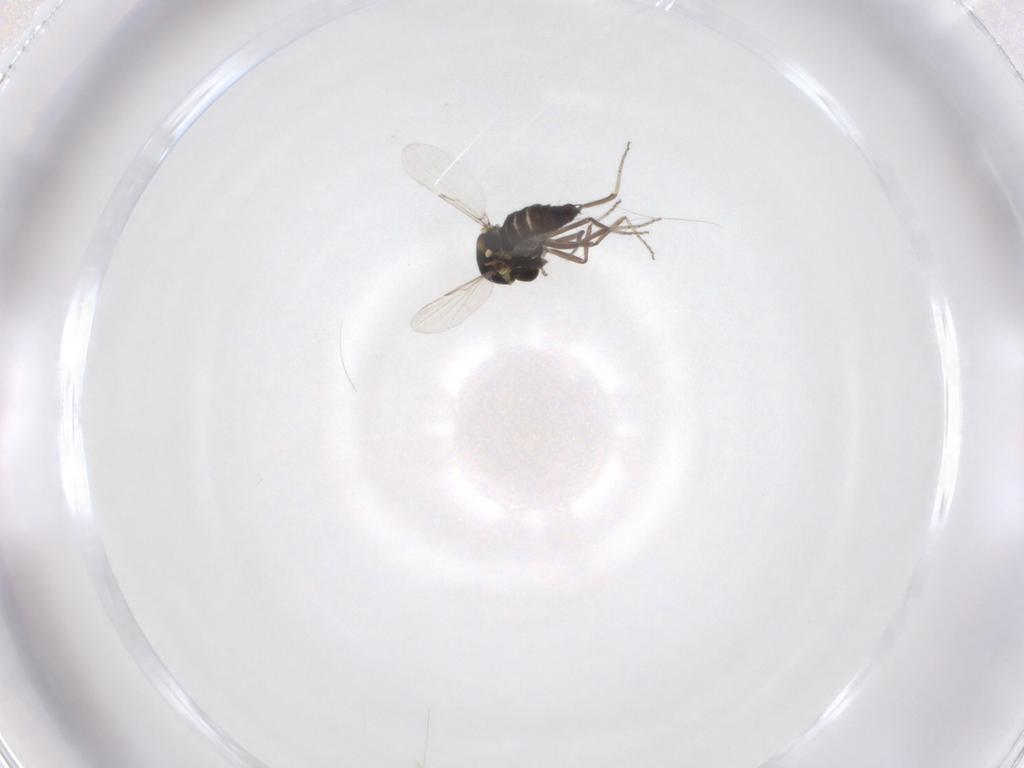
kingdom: Animalia
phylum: Arthropoda
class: Insecta
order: Diptera
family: Ceratopogonidae
